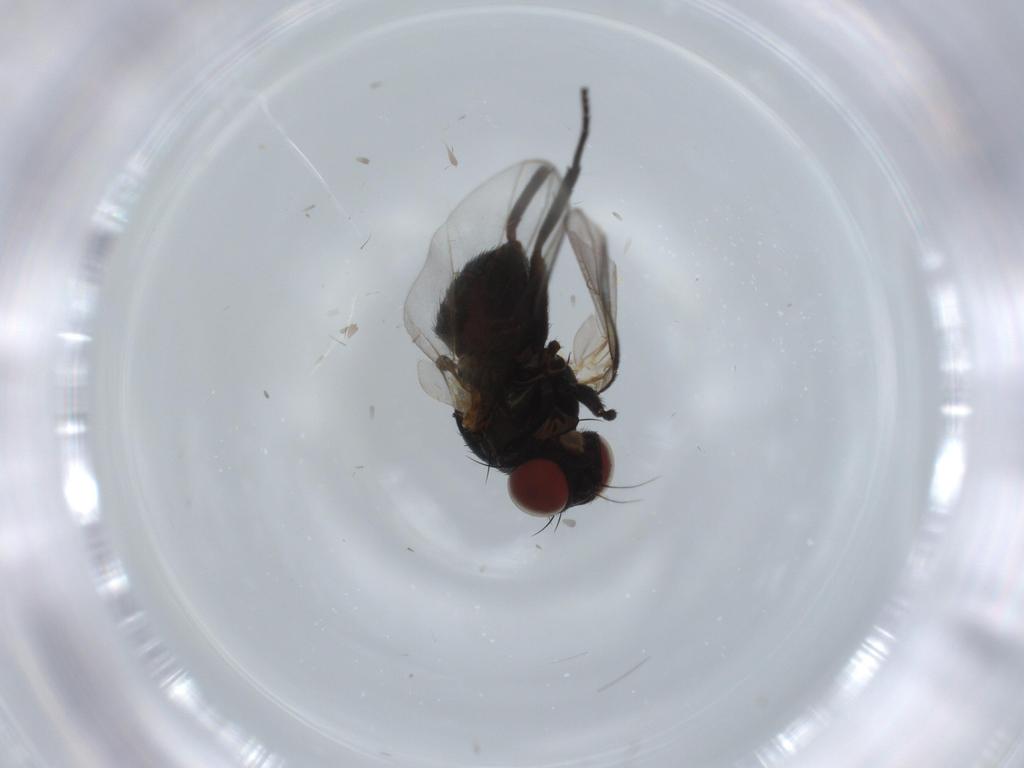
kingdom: Animalia
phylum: Arthropoda
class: Insecta
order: Diptera
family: Agromyzidae
